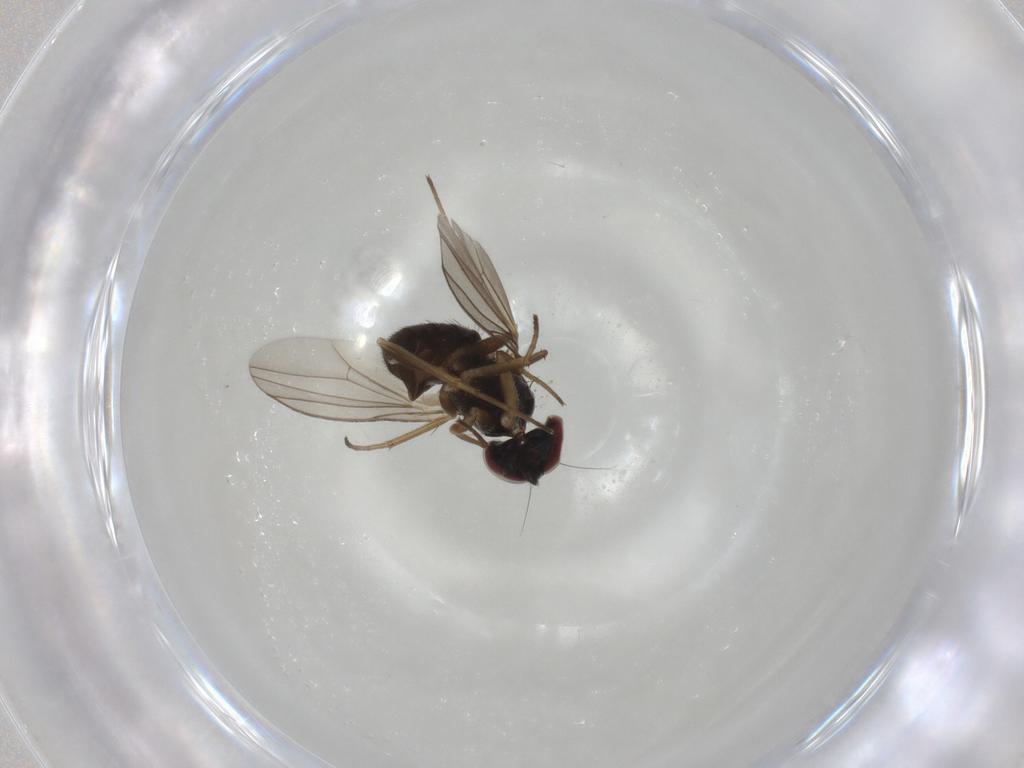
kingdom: Animalia
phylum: Arthropoda
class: Insecta
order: Diptera
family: Dolichopodidae
